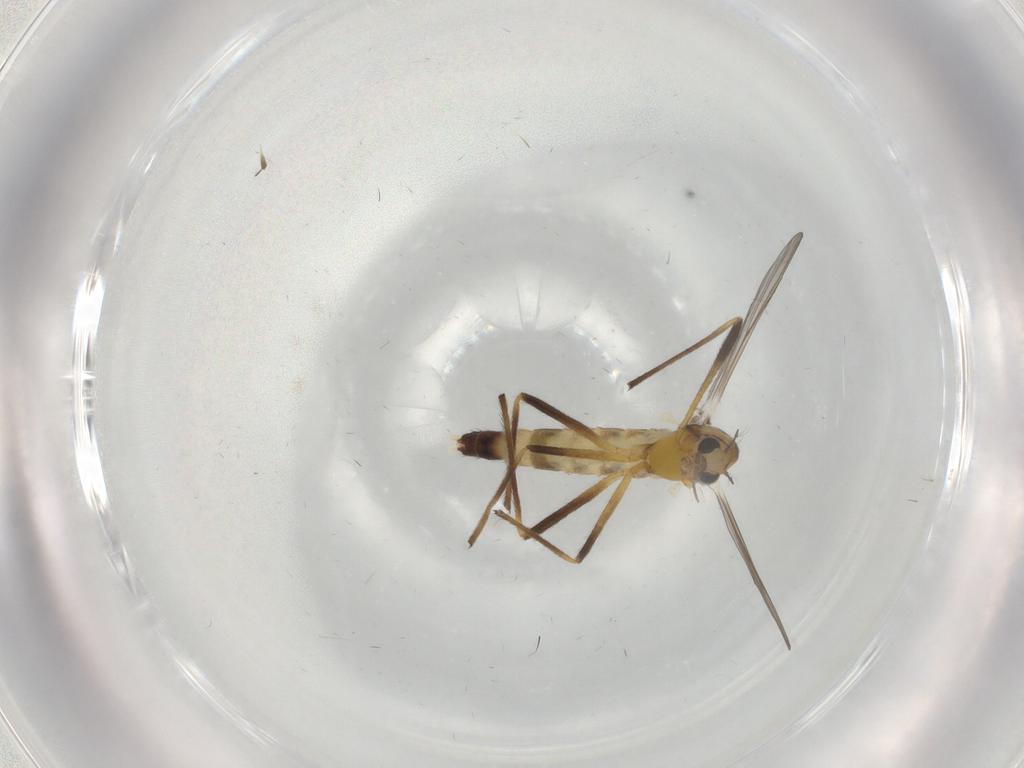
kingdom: Animalia
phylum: Arthropoda
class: Insecta
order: Diptera
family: Chironomidae
